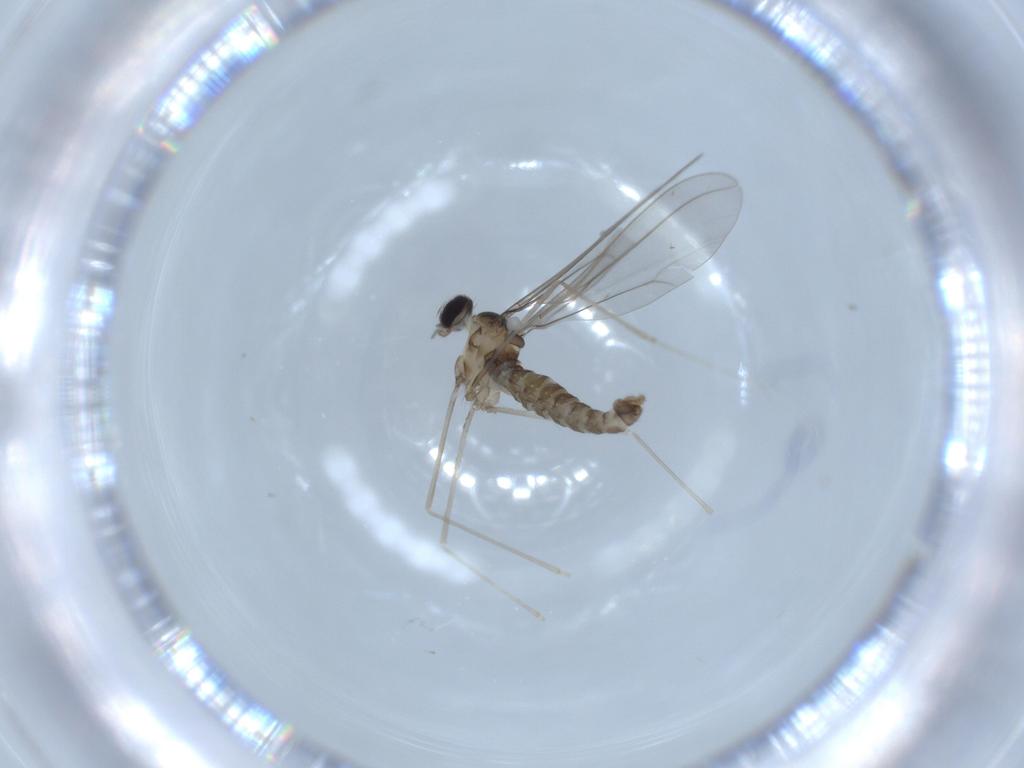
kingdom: Animalia
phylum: Arthropoda
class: Insecta
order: Diptera
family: Cecidomyiidae
